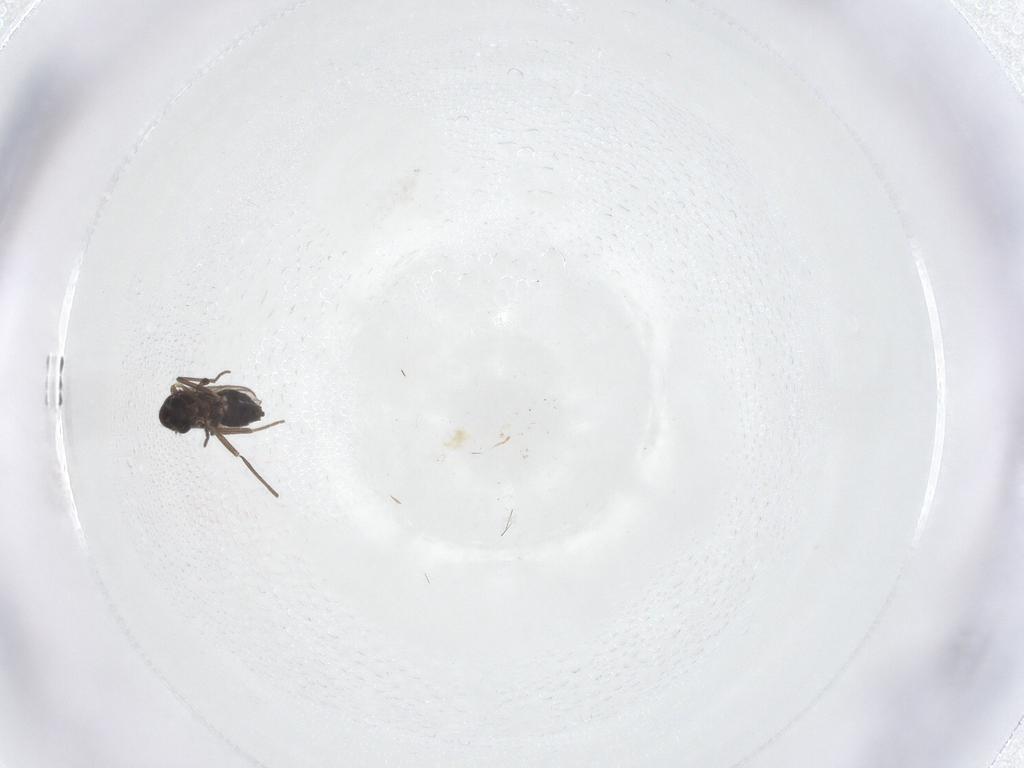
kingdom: Animalia
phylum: Arthropoda
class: Insecta
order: Diptera
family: Chironomidae
